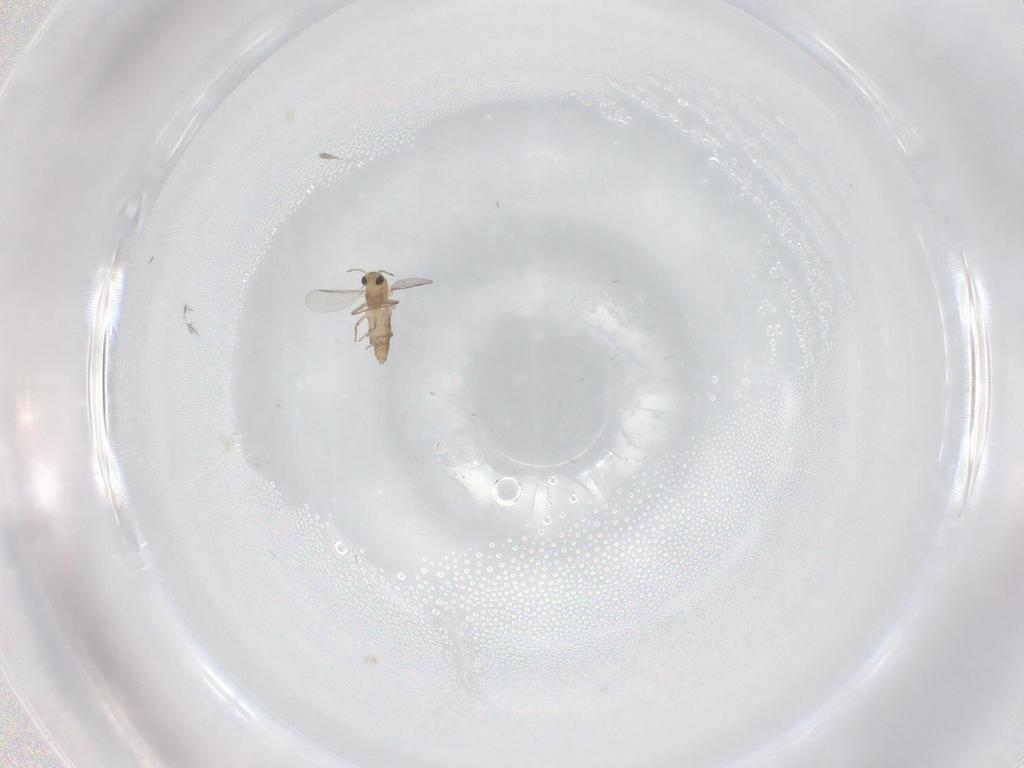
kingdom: Animalia
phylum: Arthropoda
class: Insecta
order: Diptera
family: Chironomidae
